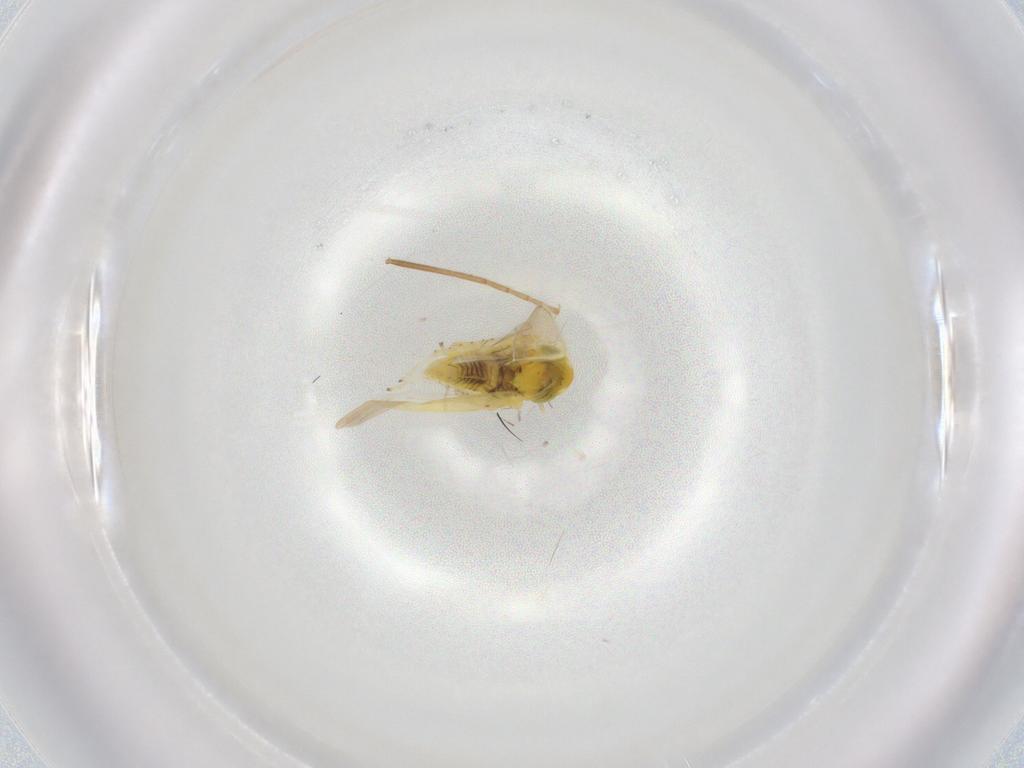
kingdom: Animalia
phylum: Arthropoda
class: Insecta
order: Hemiptera
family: Cicadellidae
